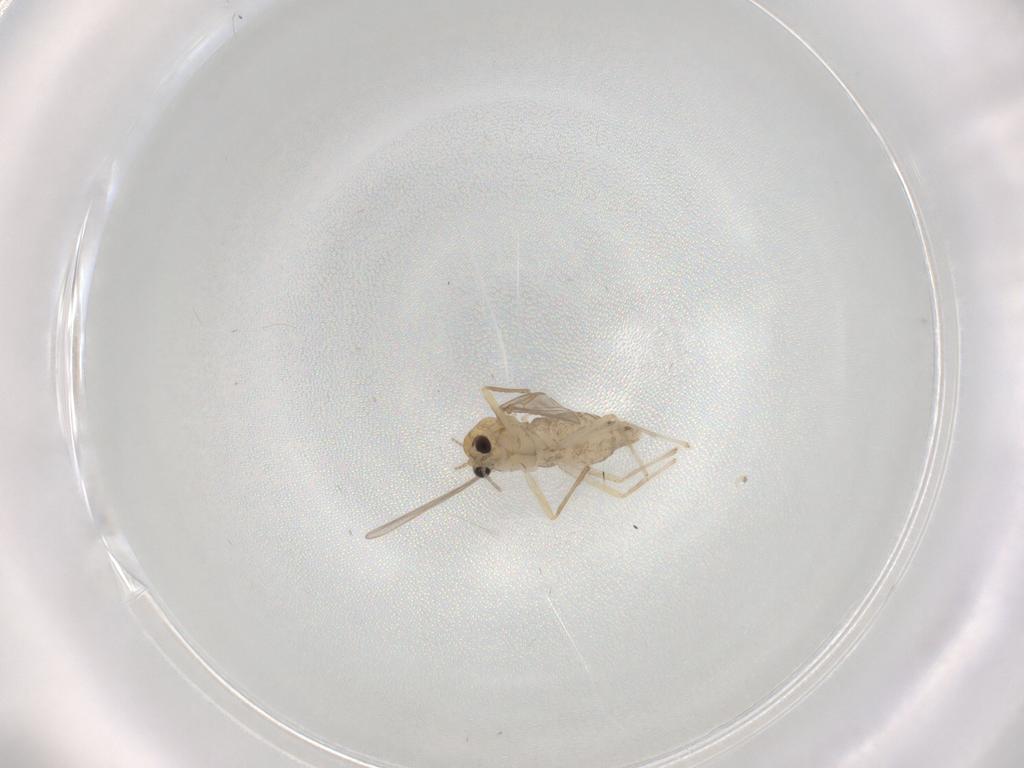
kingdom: Animalia
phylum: Arthropoda
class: Insecta
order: Diptera
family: Chironomidae
